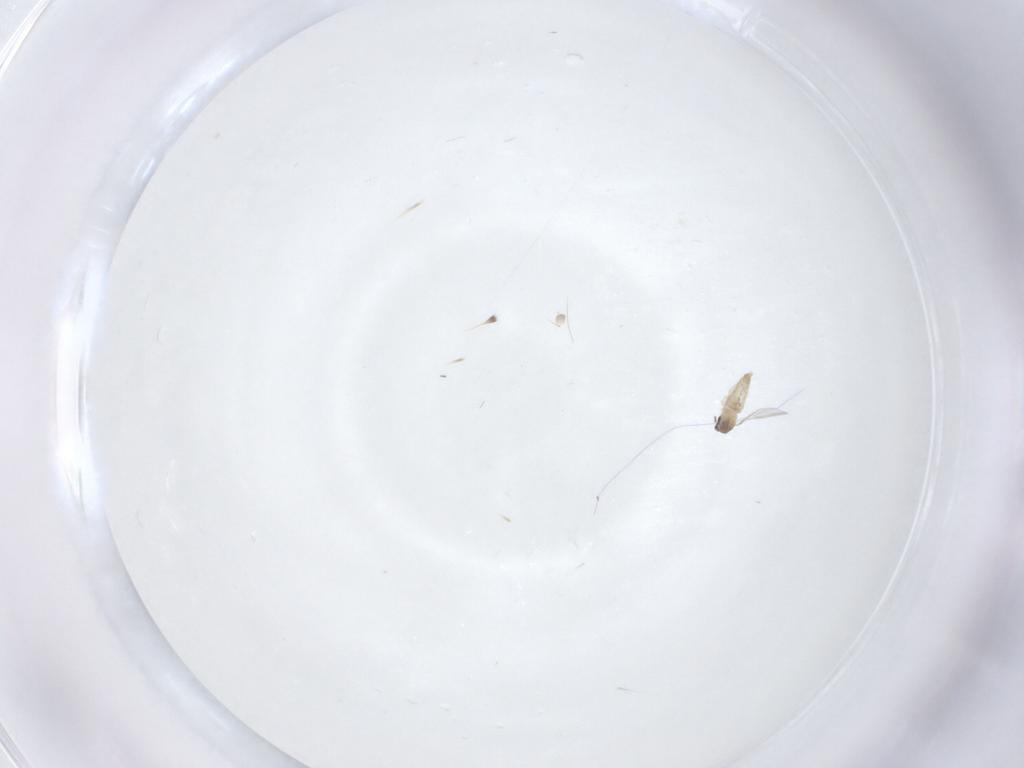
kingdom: Animalia
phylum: Arthropoda
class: Insecta
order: Diptera
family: Cecidomyiidae
